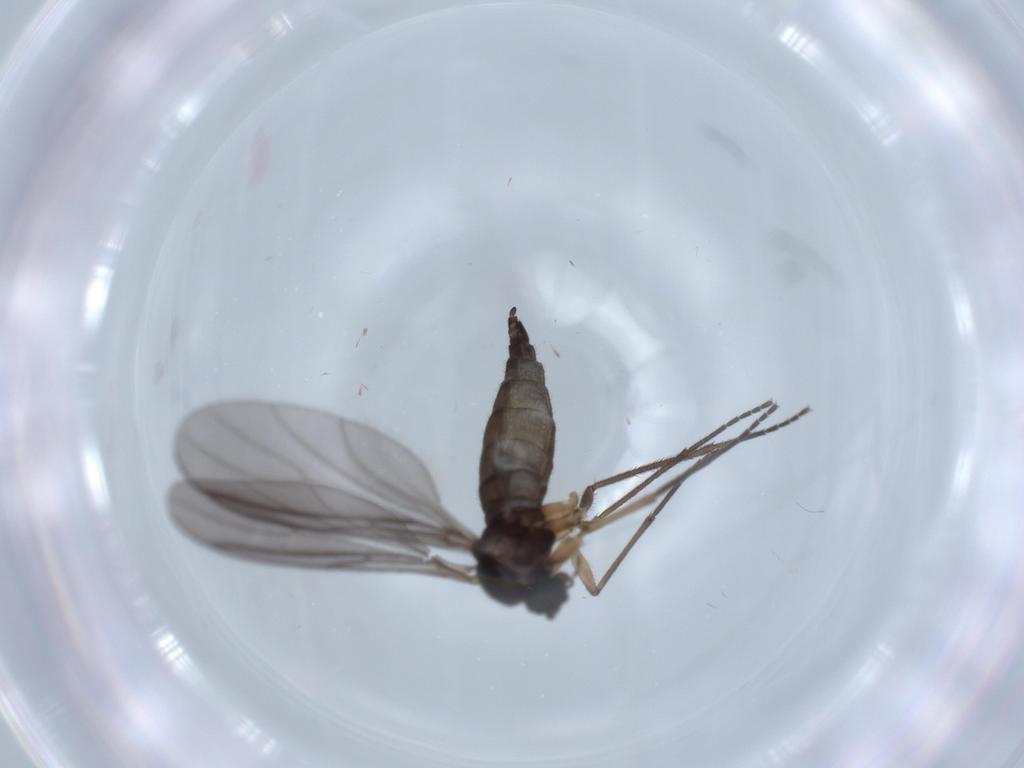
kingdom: Animalia
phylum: Arthropoda
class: Insecta
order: Diptera
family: Sciaridae
